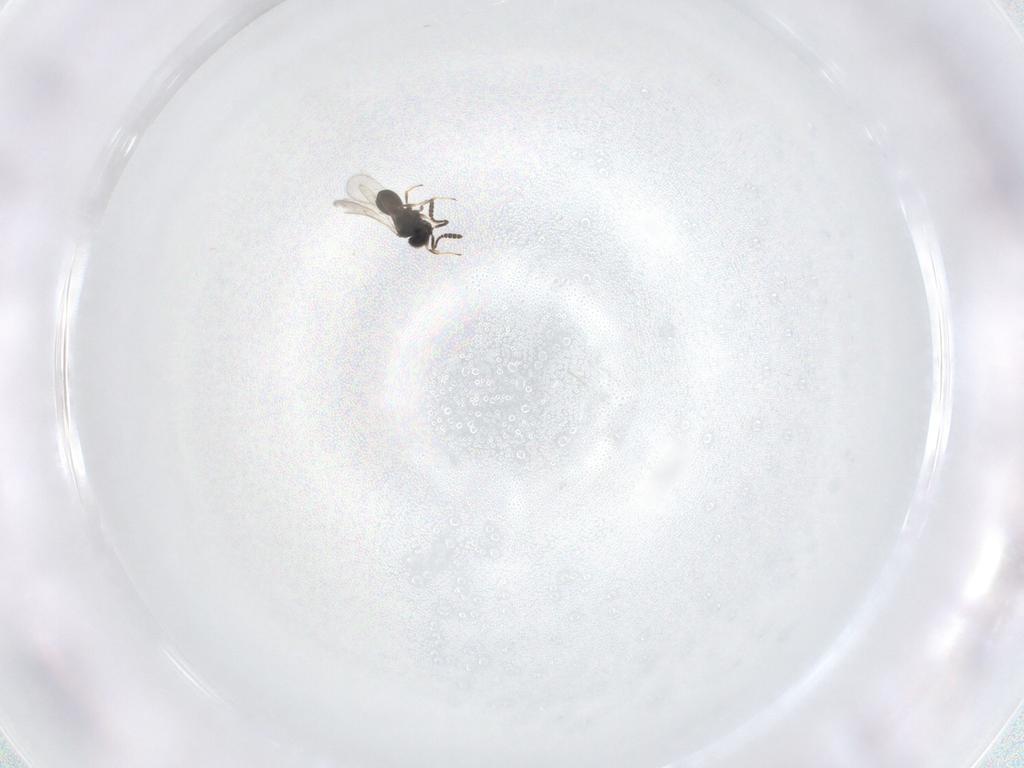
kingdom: Animalia
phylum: Arthropoda
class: Insecta
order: Hymenoptera
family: Scelionidae
